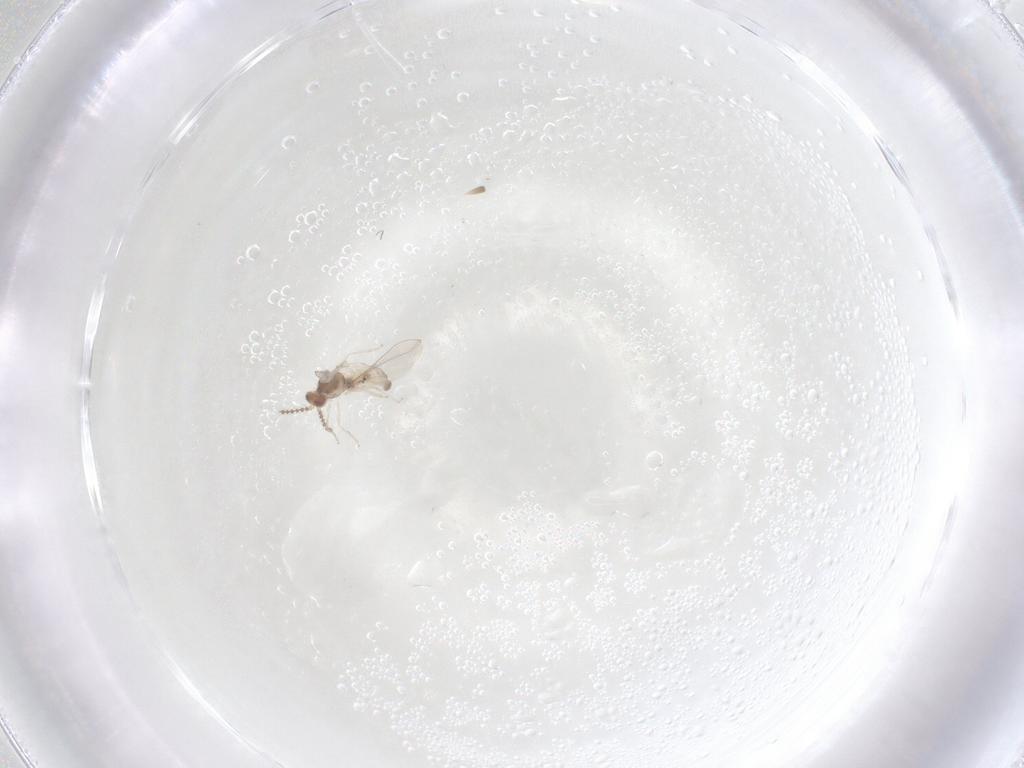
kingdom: Animalia
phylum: Arthropoda
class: Insecta
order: Diptera
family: Cecidomyiidae
